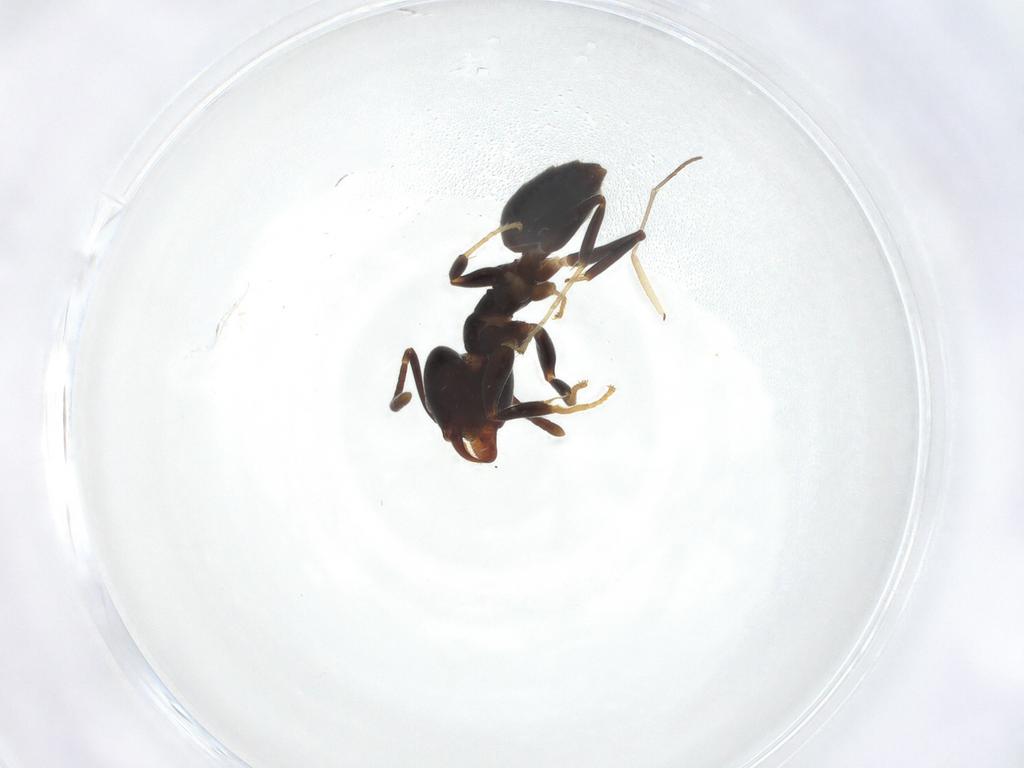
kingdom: Animalia
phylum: Arthropoda
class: Insecta
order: Hymenoptera
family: Formicidae
